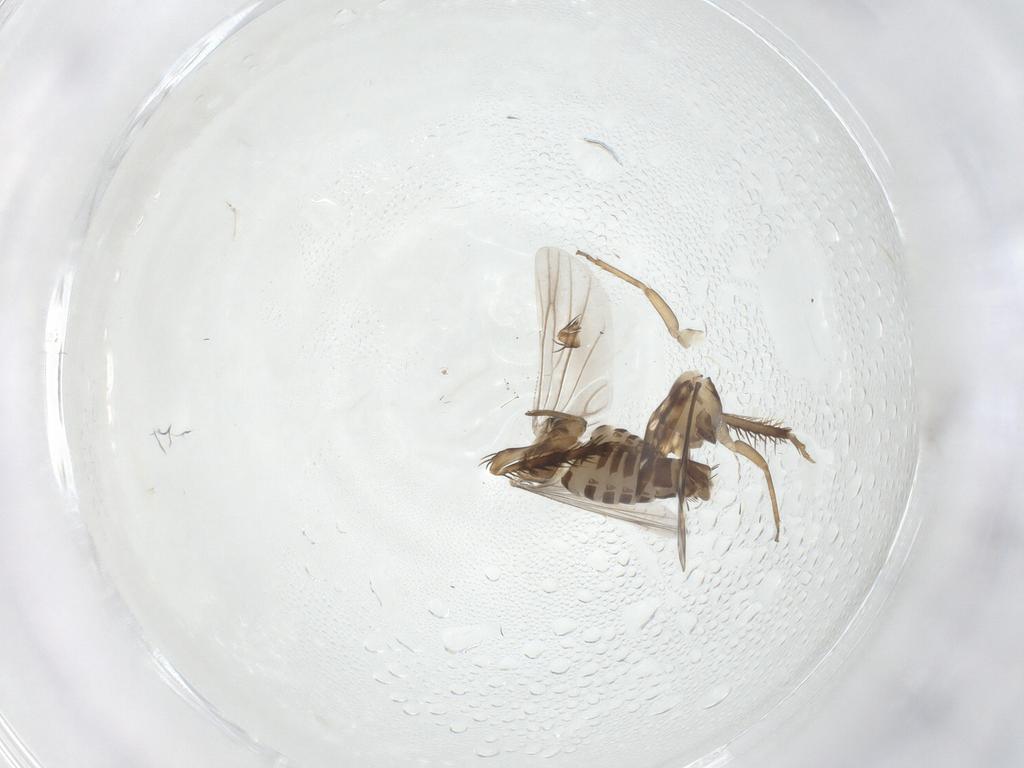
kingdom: Animalia
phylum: Arthropoda
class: Insecta
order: Hemiptera
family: Cicadellidae
